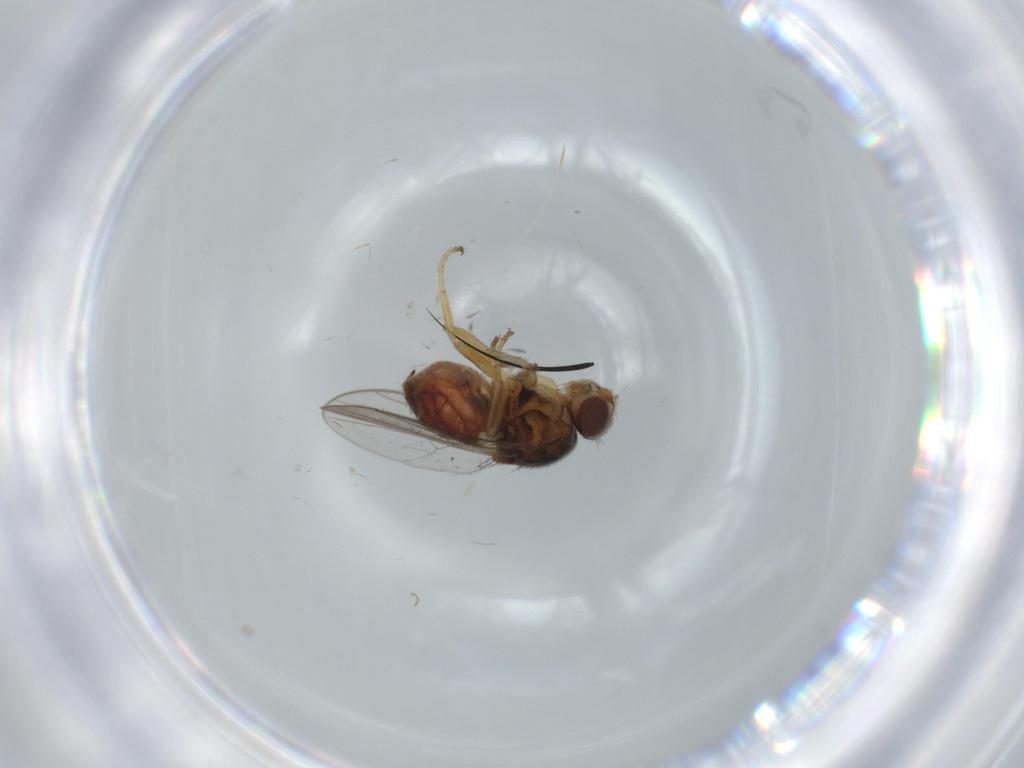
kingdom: Animalia
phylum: Arthropoda
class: Insecta
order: Diptera
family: Chloropidae
